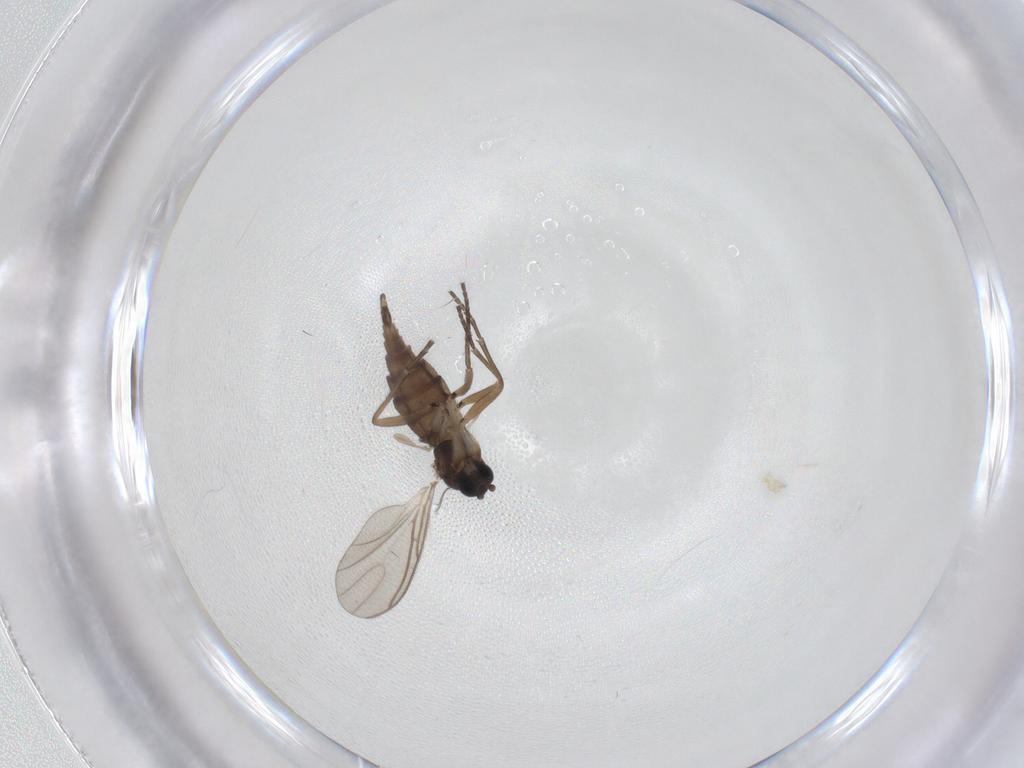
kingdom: Animalia
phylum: Arthropoda
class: Insecta
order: Diptera
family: Sciaridae
